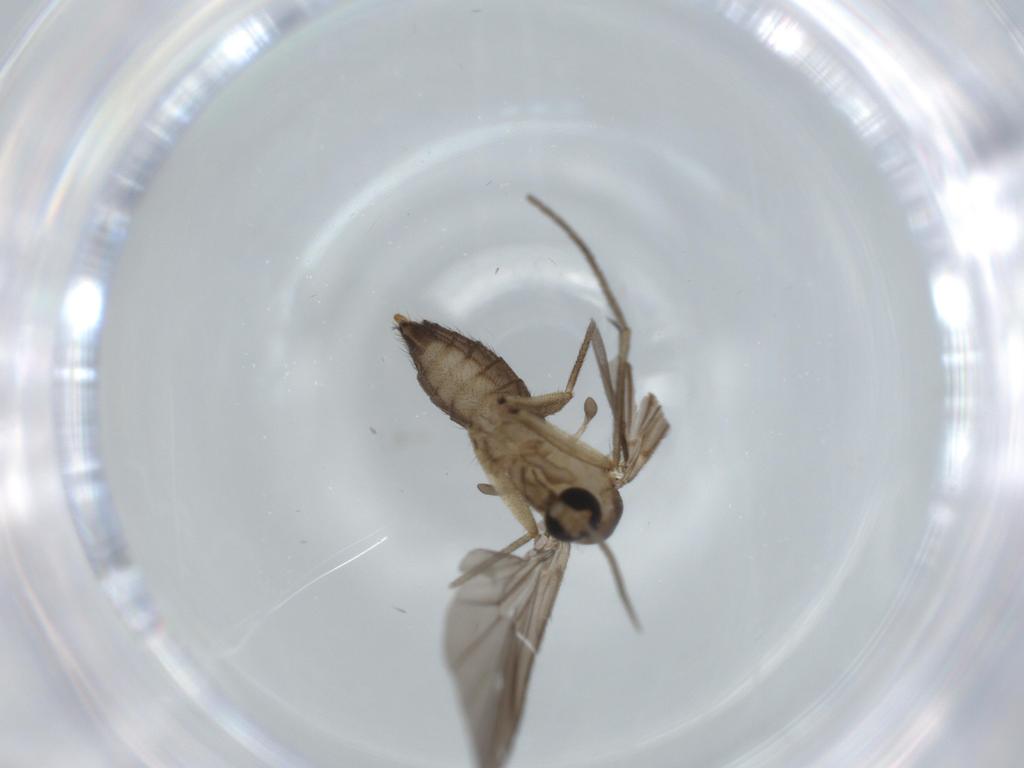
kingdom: Animalia
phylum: Arthropoda
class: Insecta
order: Diptera
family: Cecidomyiidae
